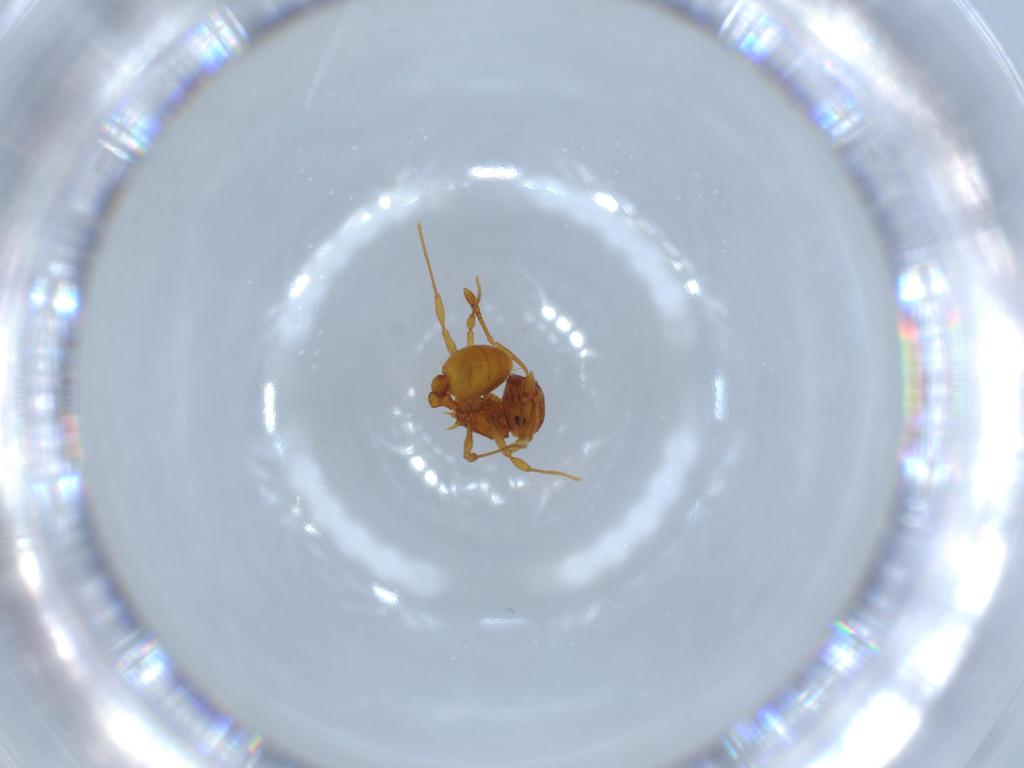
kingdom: Animalia
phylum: Arthropoda
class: Insecta
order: Hymenoptera
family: Formicidae
